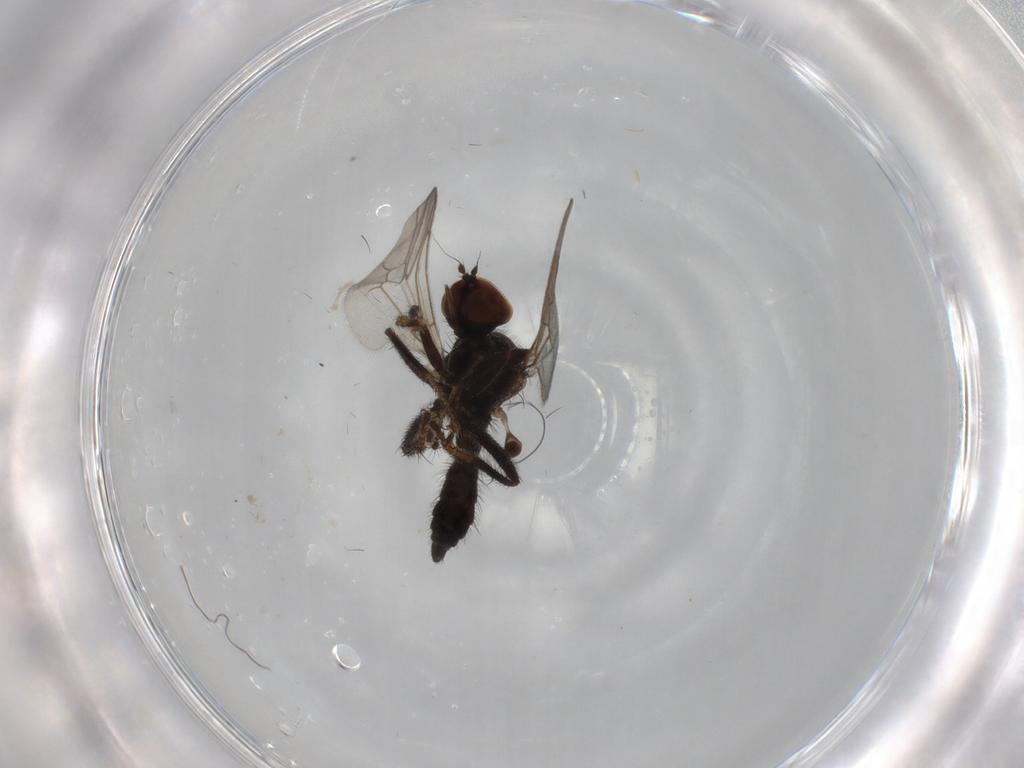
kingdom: Animalia
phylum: Arthropoda
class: Insecta
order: Diptera
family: Hybotidae
